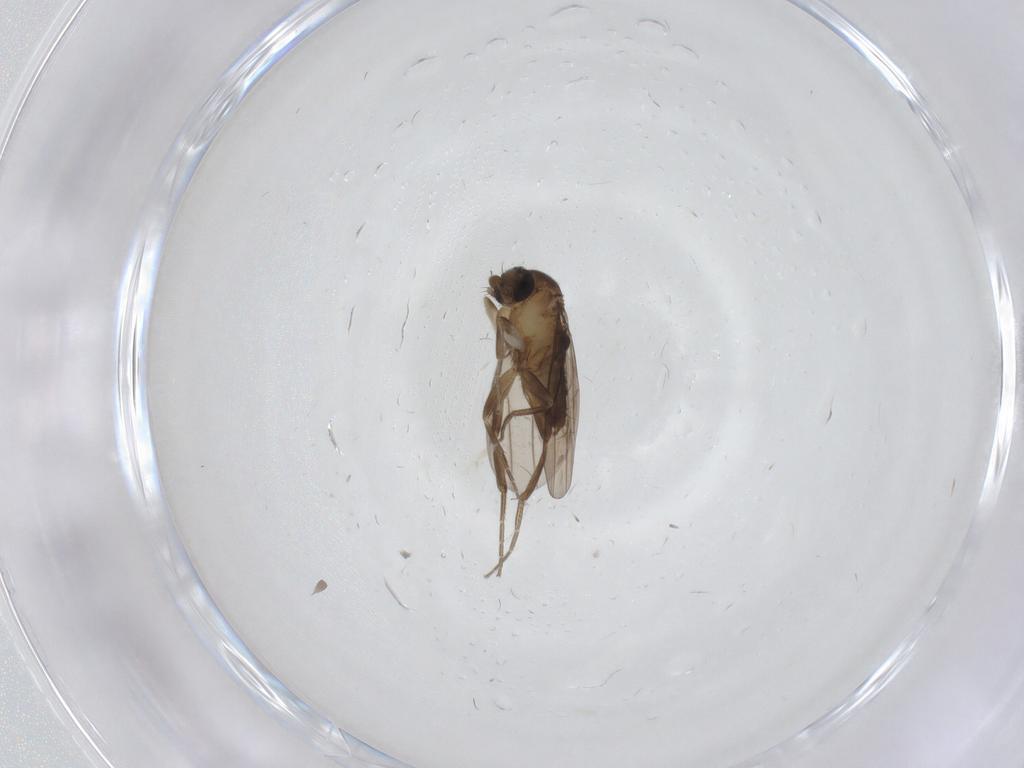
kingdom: Animalia
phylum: Arthropoda
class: Insecta
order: Diptera
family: Chironomidae
